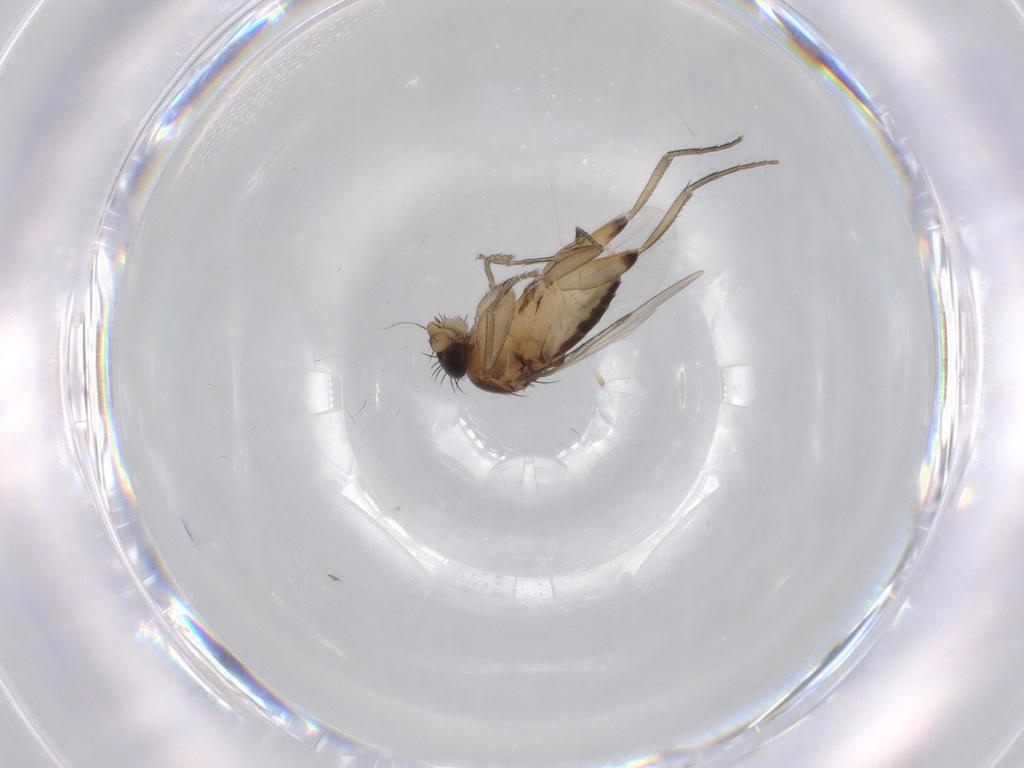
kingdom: Animalia
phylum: Arthropoda
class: Insecta
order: Diptera
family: Phoridae
